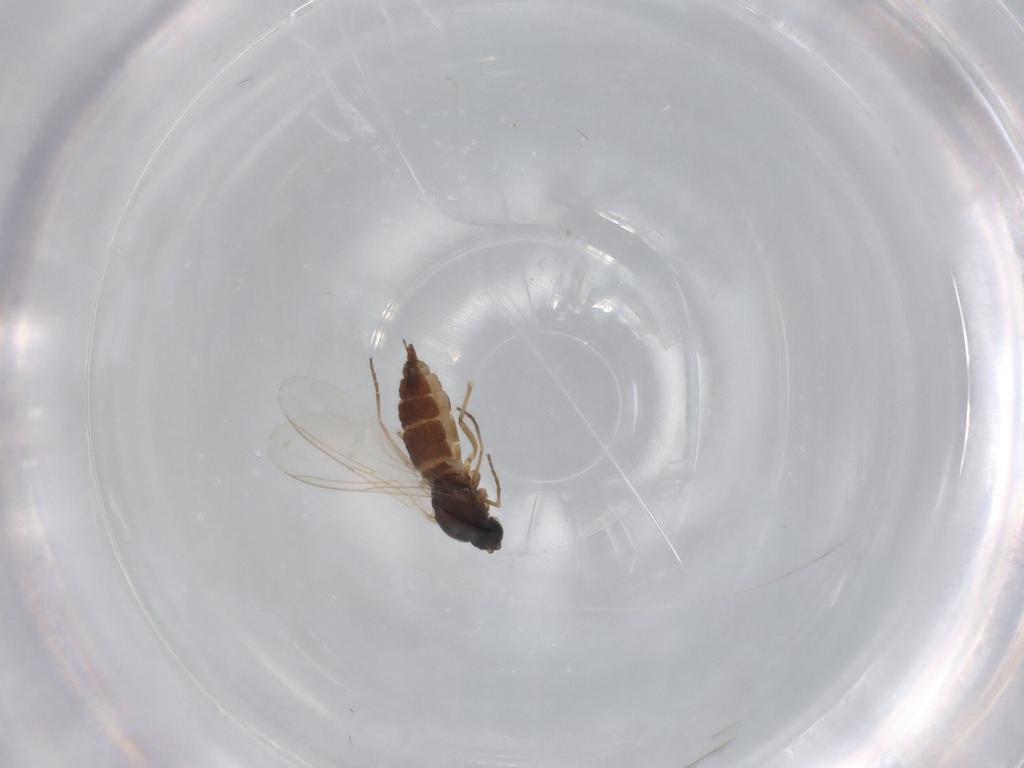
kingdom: Animalia
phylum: Arthropoda
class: Insecta
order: Diptera
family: Sciaridae
